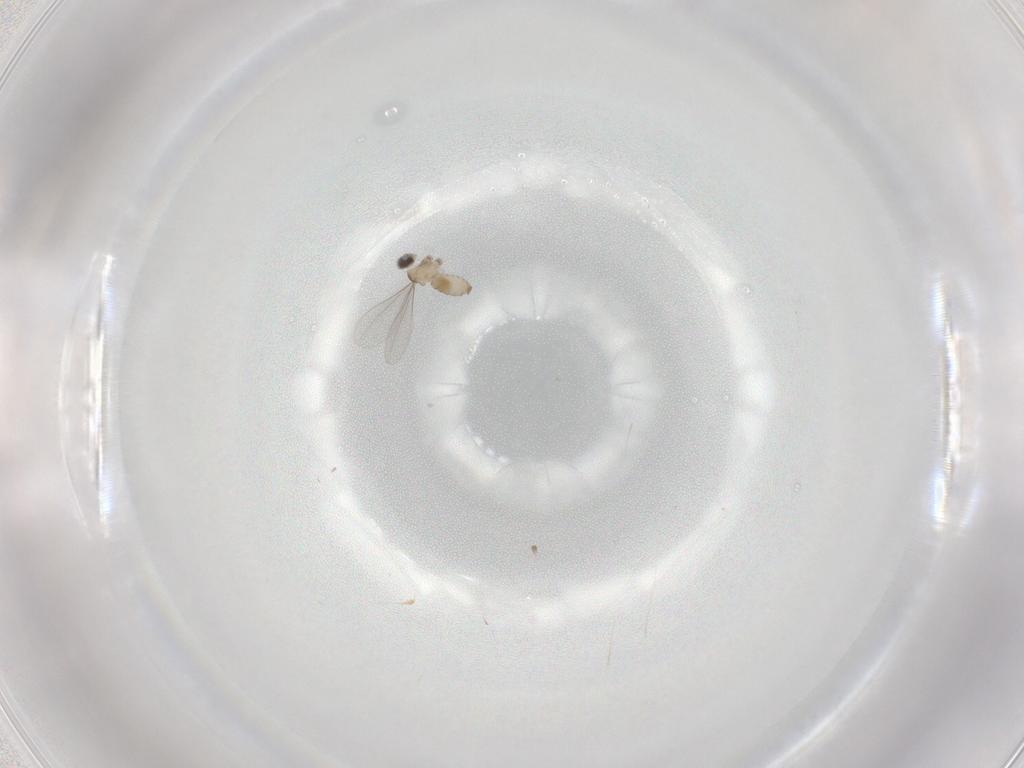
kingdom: Animalia
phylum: Arthropoda
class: Insecta
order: Diptera
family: Cecidomyiidae
